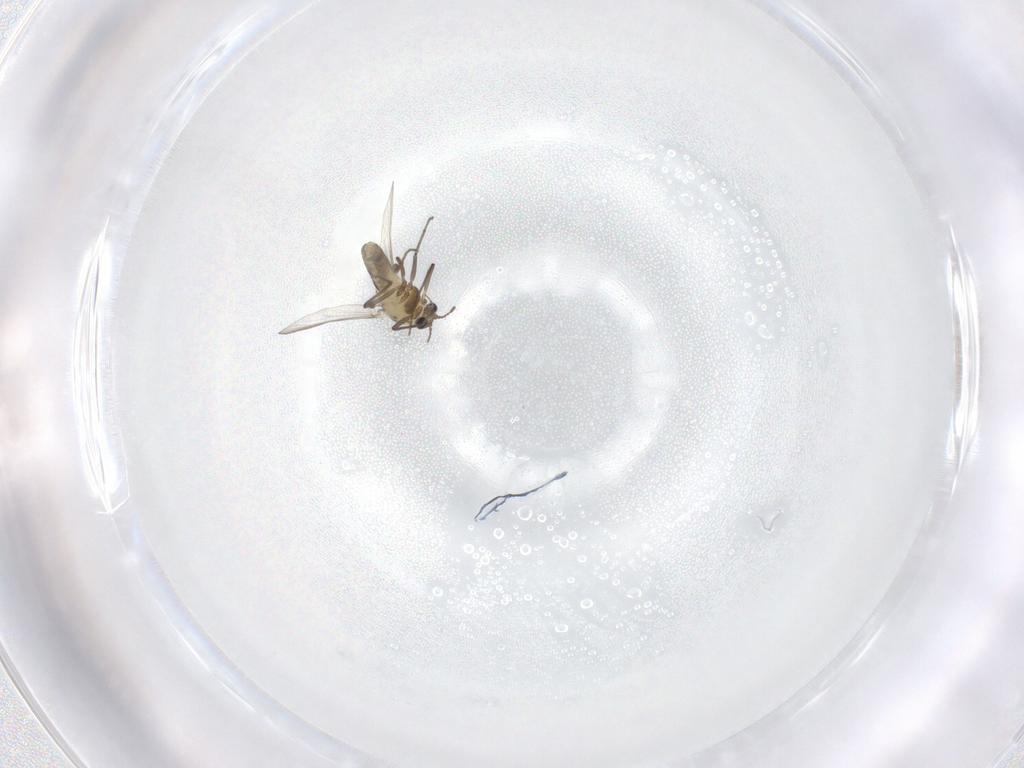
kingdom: Animalia
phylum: Arthropoda
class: Insecta
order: Diptera
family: Chironomidae
